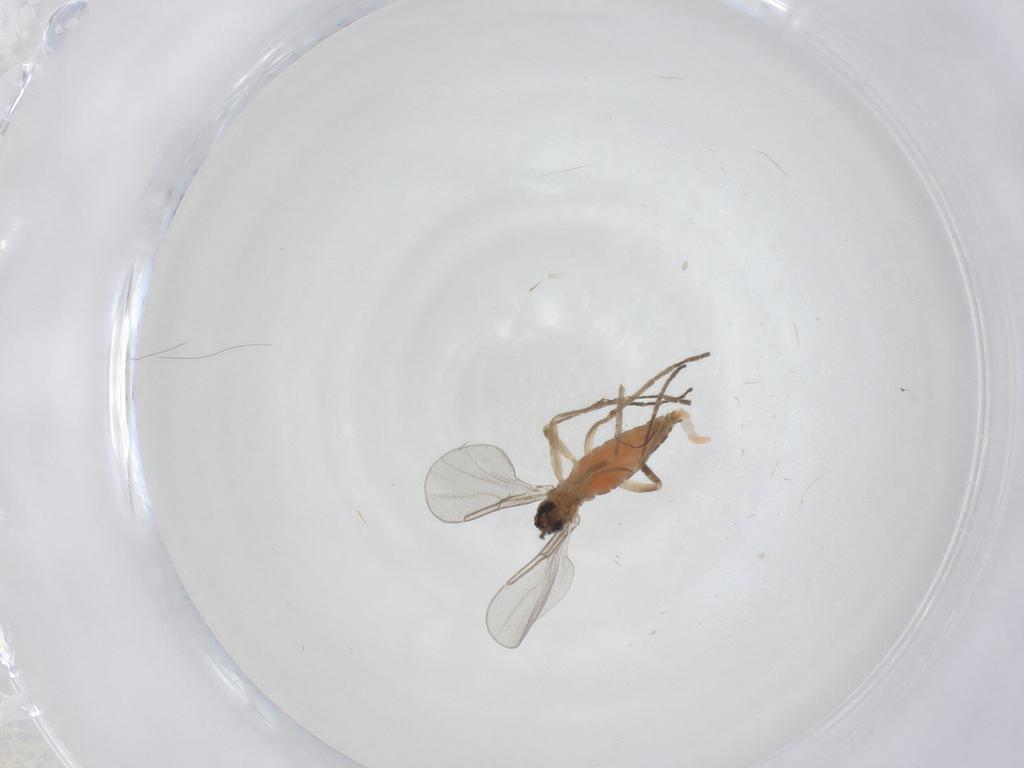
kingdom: Animalia
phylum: Arthropoda
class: Insecta
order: Diptera
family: Cecidomyiidae
